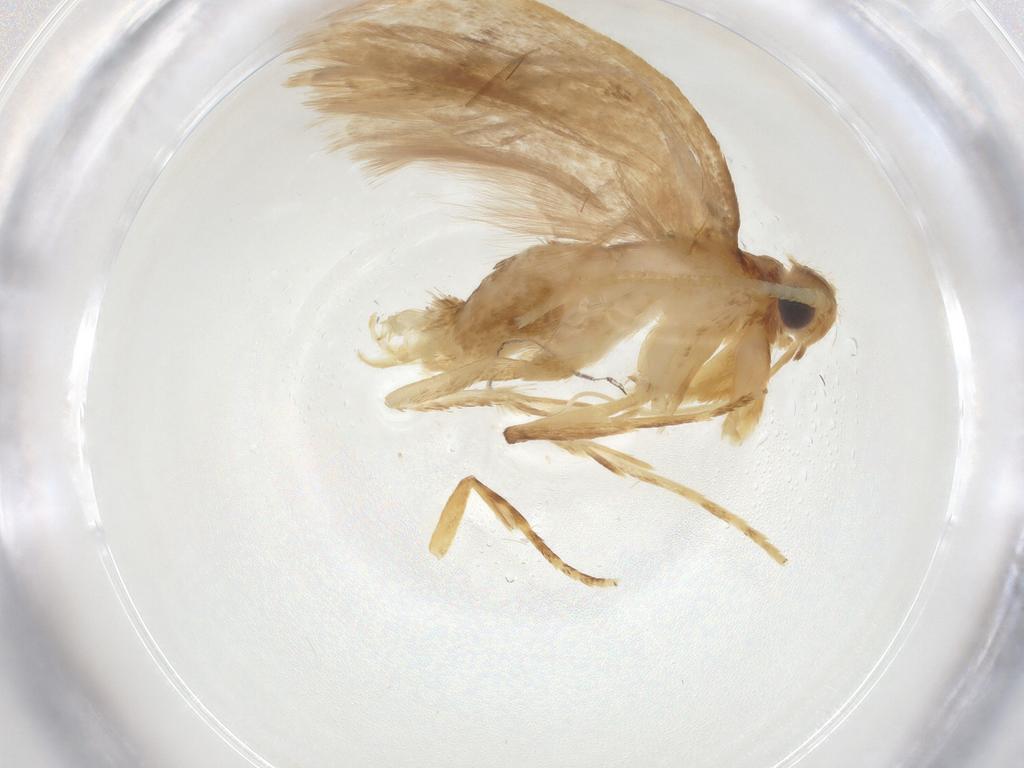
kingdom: Animalia
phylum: Arthropoda
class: Insecta
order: Lepidoptera
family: Lecithoceridae
